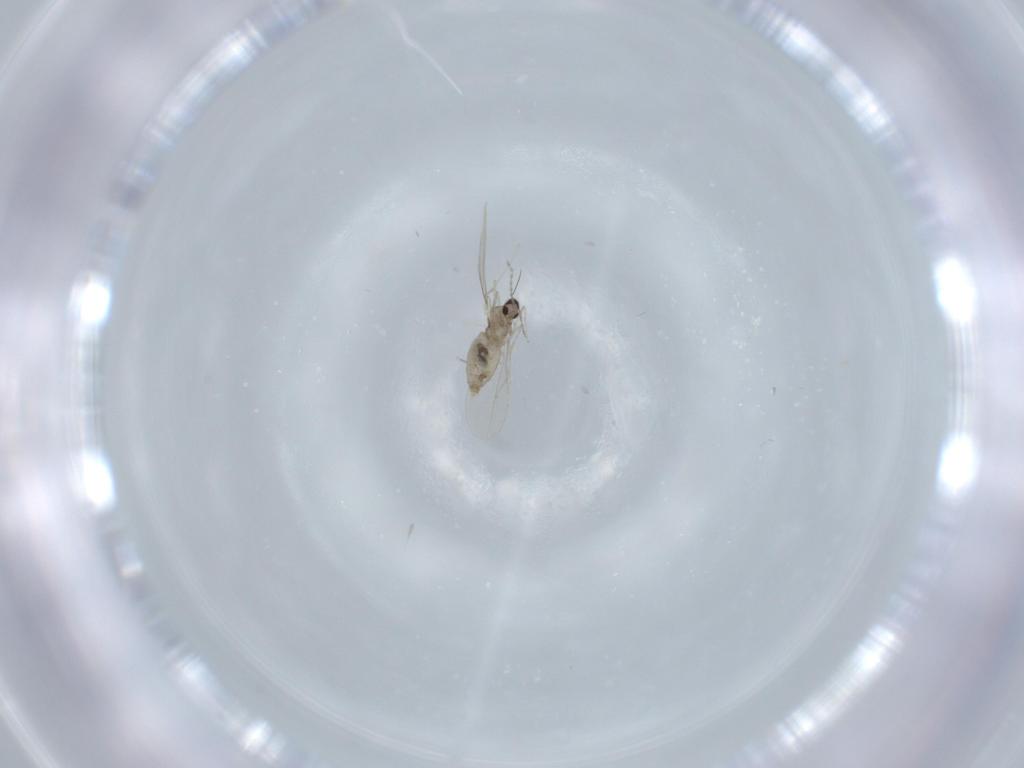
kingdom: Animalia
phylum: Arthropoda
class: Insecta
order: Diptera
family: Cecidomyiidae
